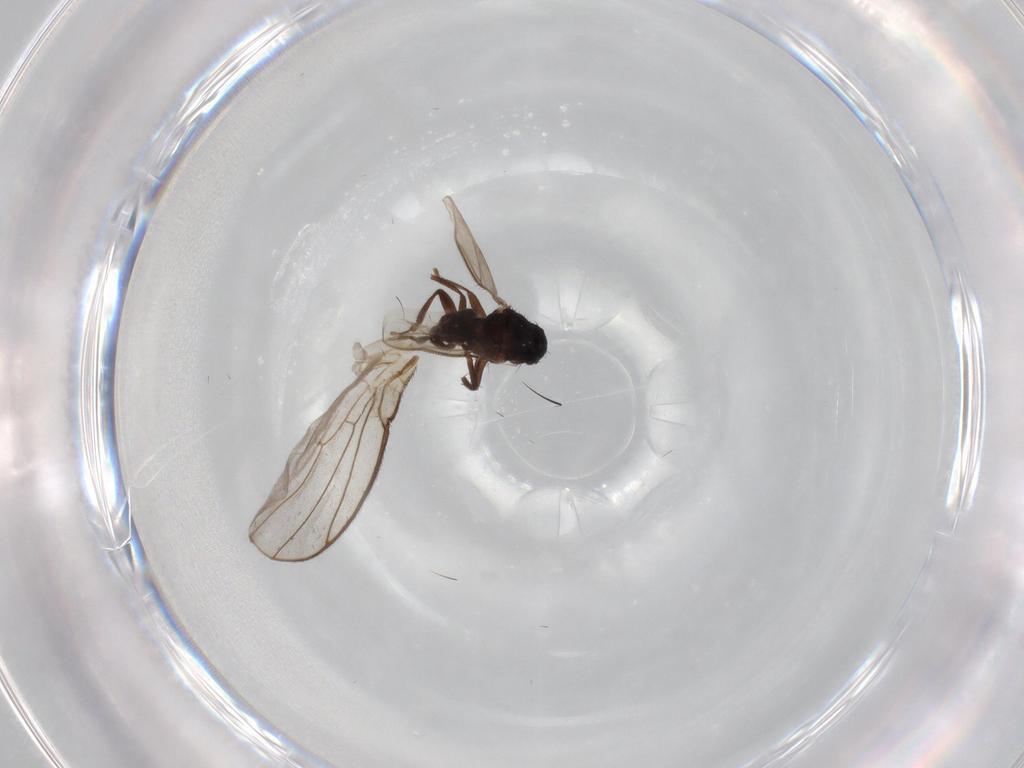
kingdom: Animalia
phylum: Arthropoda
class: Insecta
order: Diptera
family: Sphaeroceridae
